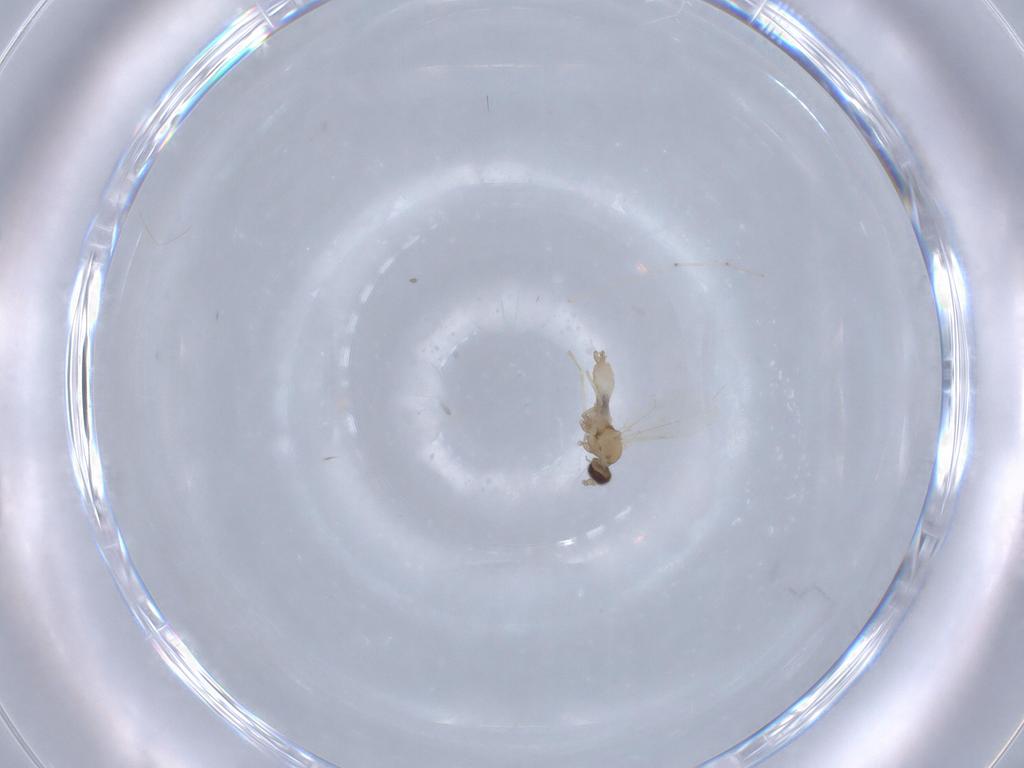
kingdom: Animalia
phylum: Arthropoda
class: Insecta
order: Diptera
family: Cecidomyiidae
